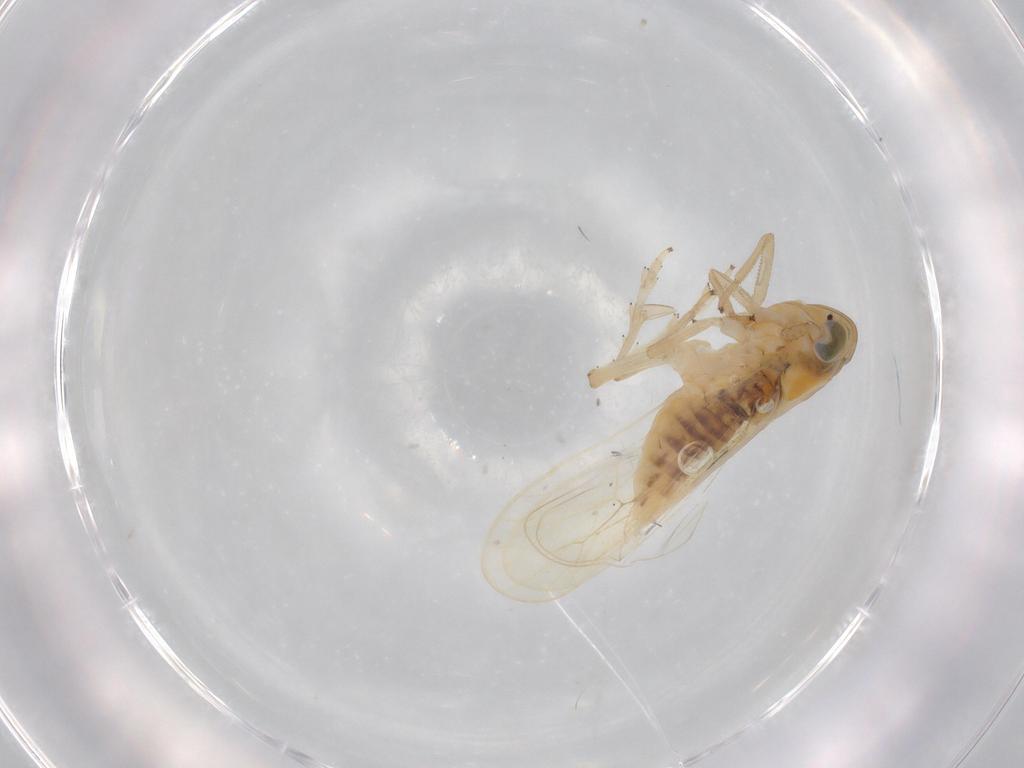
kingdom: Animalia
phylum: Arthropoda
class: Insecta
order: Hemiptera
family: Delphacidae
